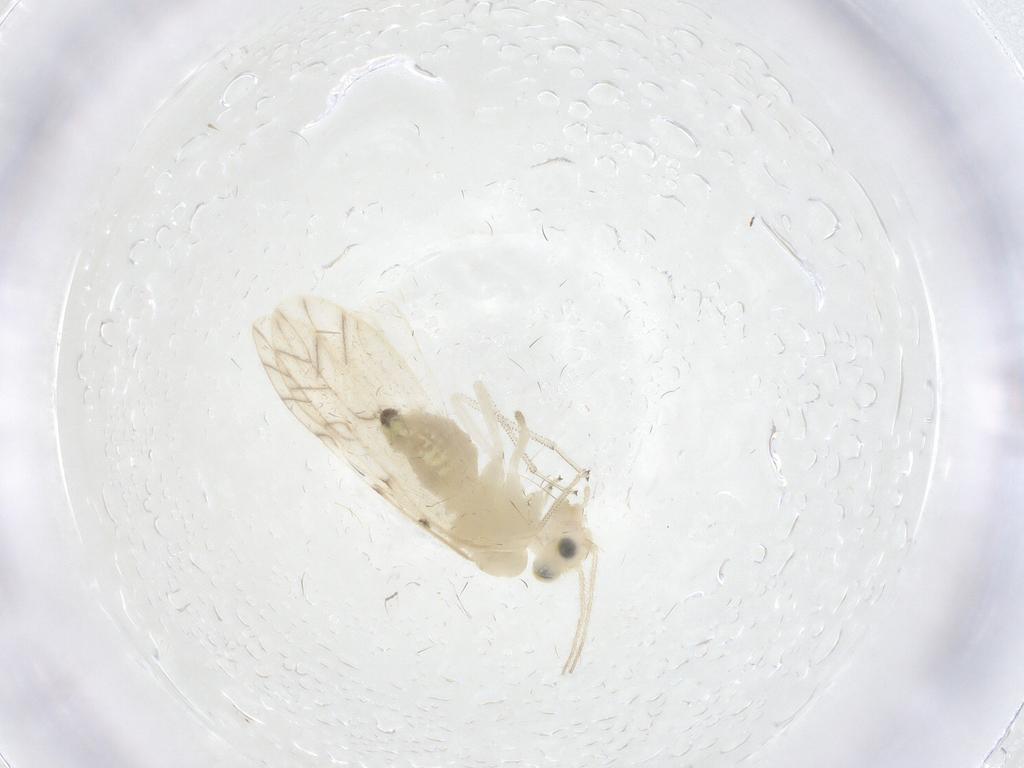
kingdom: Animalia
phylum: Arthropoda
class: Insecta
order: Psocodea
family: Caeciliusidae
